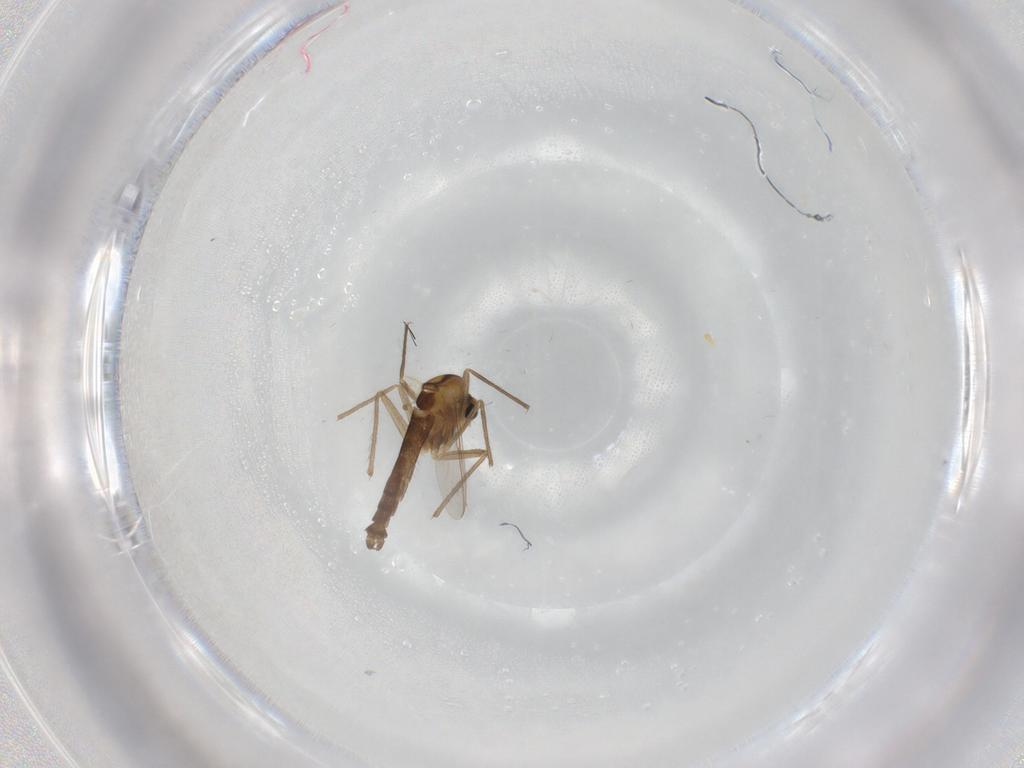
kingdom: Animalia
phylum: Arthropoda
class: Insecta
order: Diptera
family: Chironomidae
